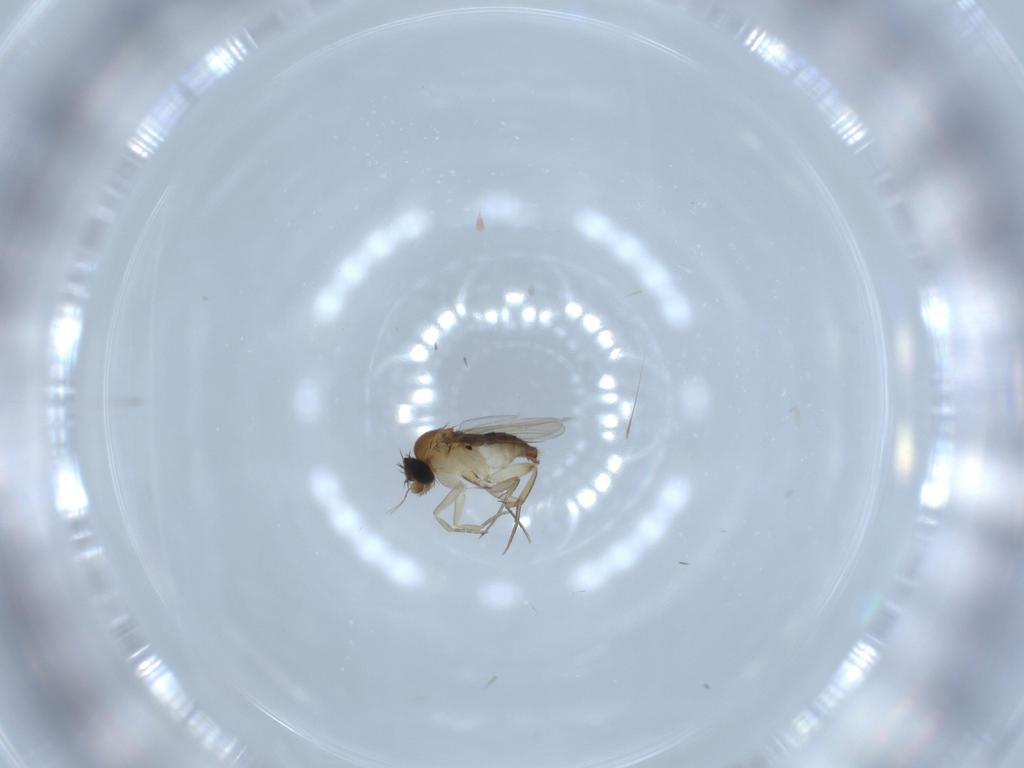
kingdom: Animalia
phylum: Arthropoda
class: Insecta
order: Diptera
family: Phoridae
